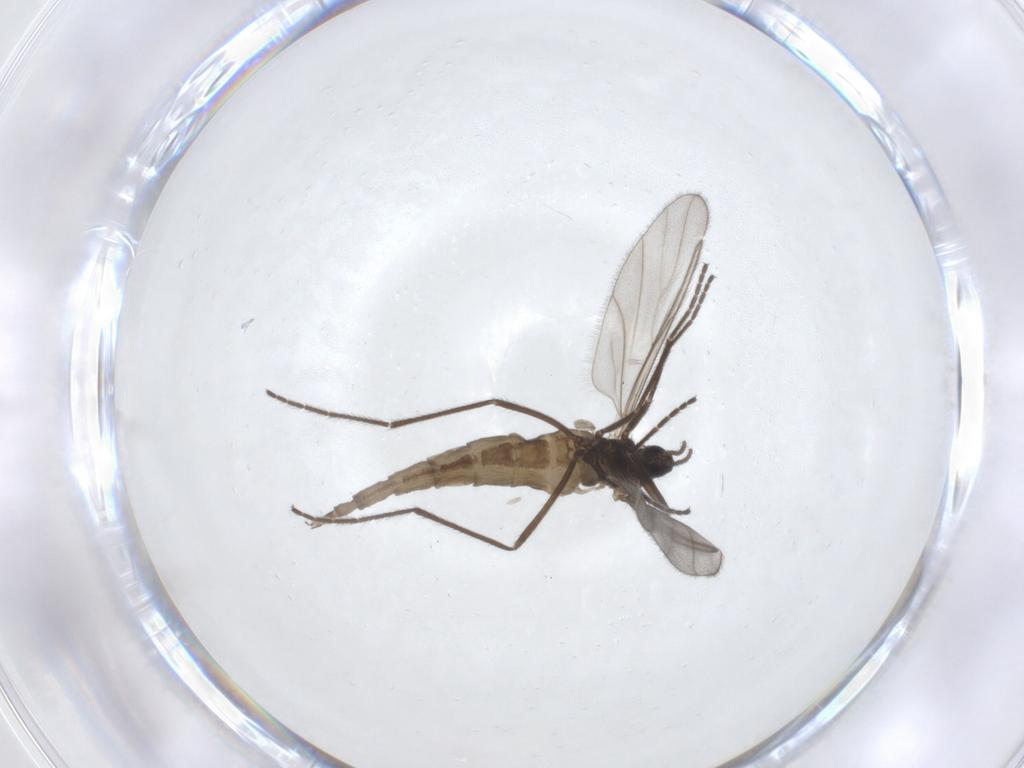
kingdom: Animalia
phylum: Arthropoda
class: Insecta
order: Diptera
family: Cecidomyiidae
